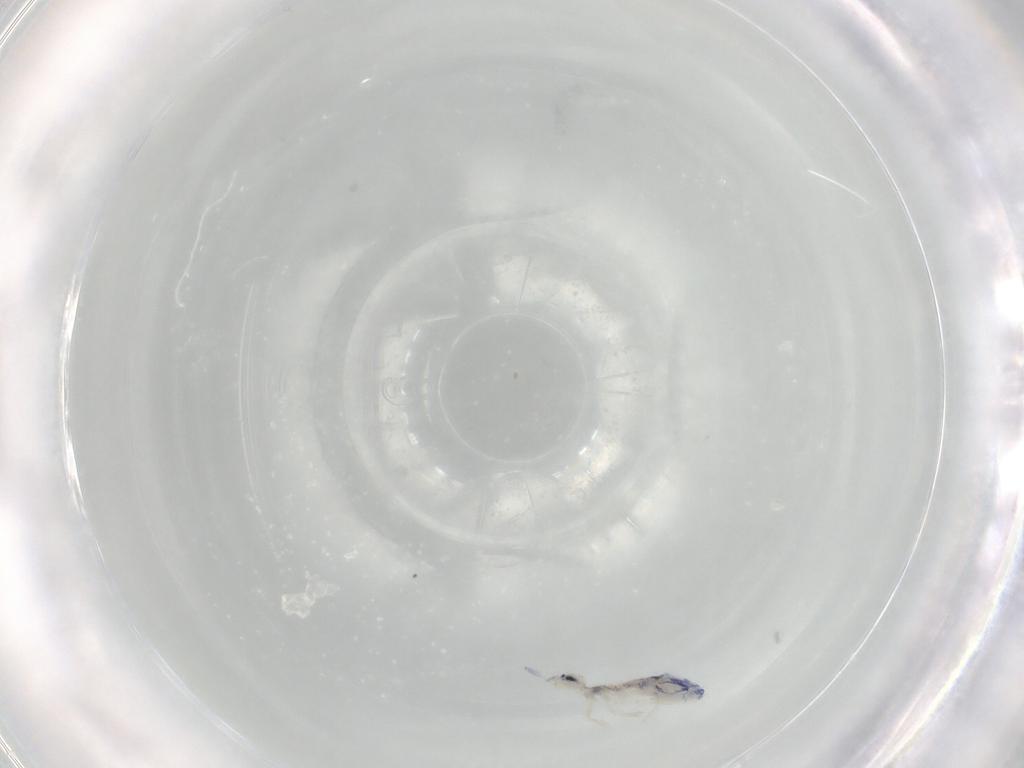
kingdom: Animalia
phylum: Arthropoda
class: Collembola
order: Entomobryomorpha
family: Entomobryidae
